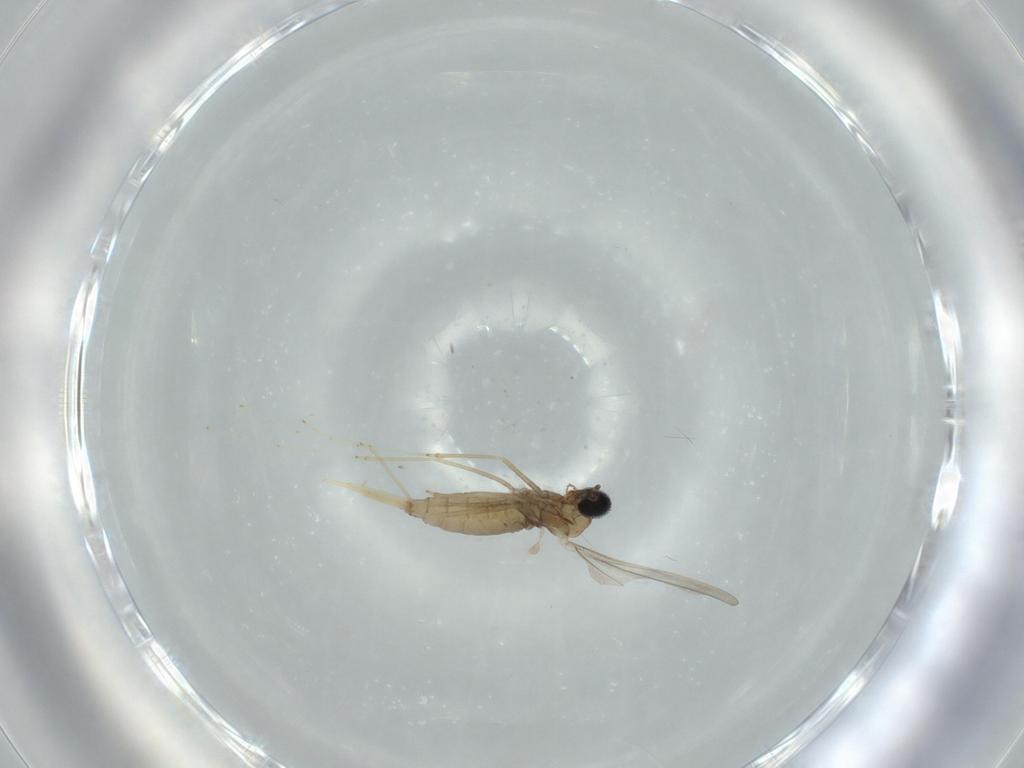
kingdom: Animalia
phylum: Arthropoda
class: Insecta
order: Diptera
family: Cecidomyiidae
